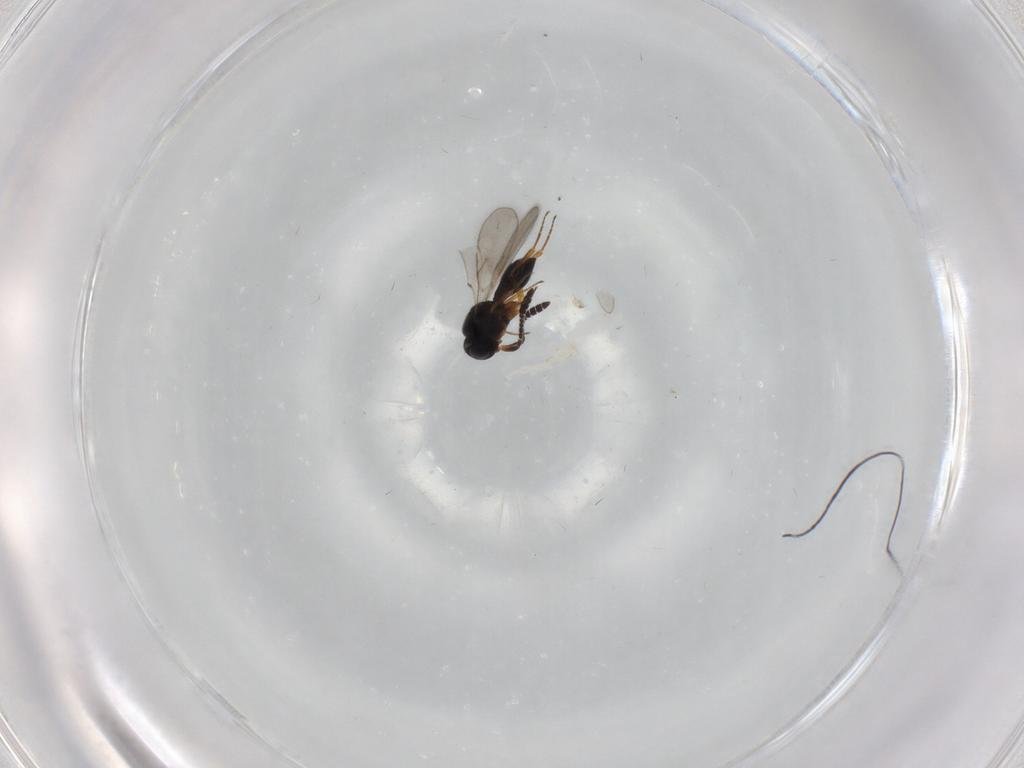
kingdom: Animalia
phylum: Arthropoda
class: Insecta
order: Hymenoptera
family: Scelionidae
